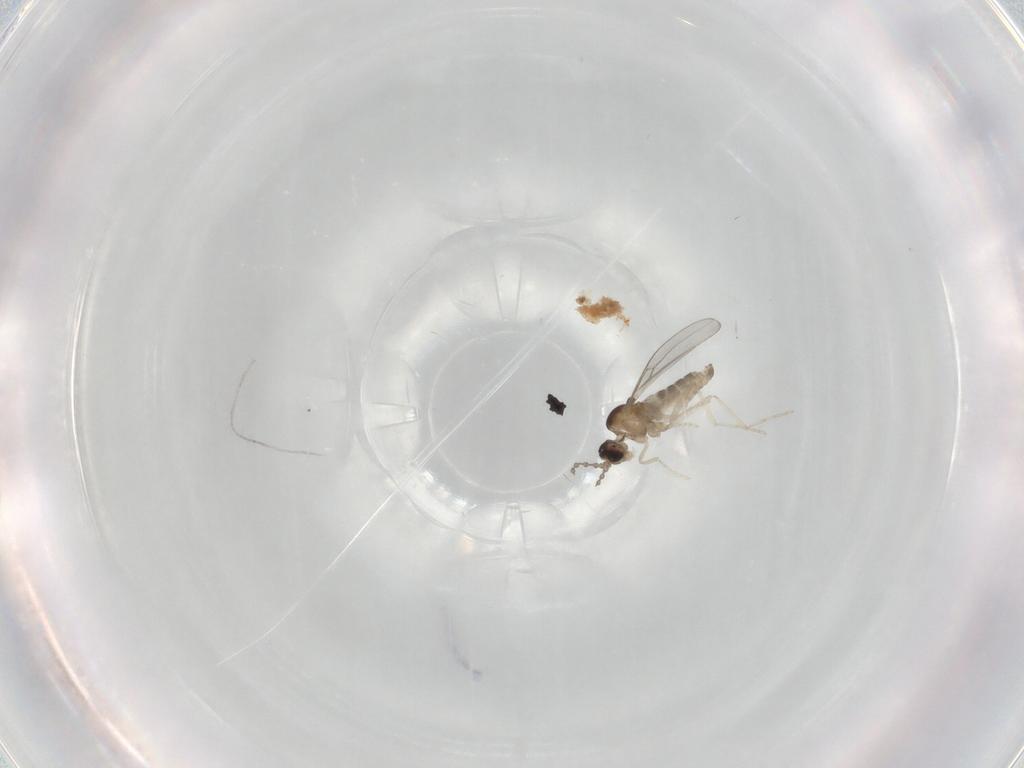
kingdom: Animalia
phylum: Arthropoda
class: Insecta
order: Diptera
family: Cecidomyiidae
